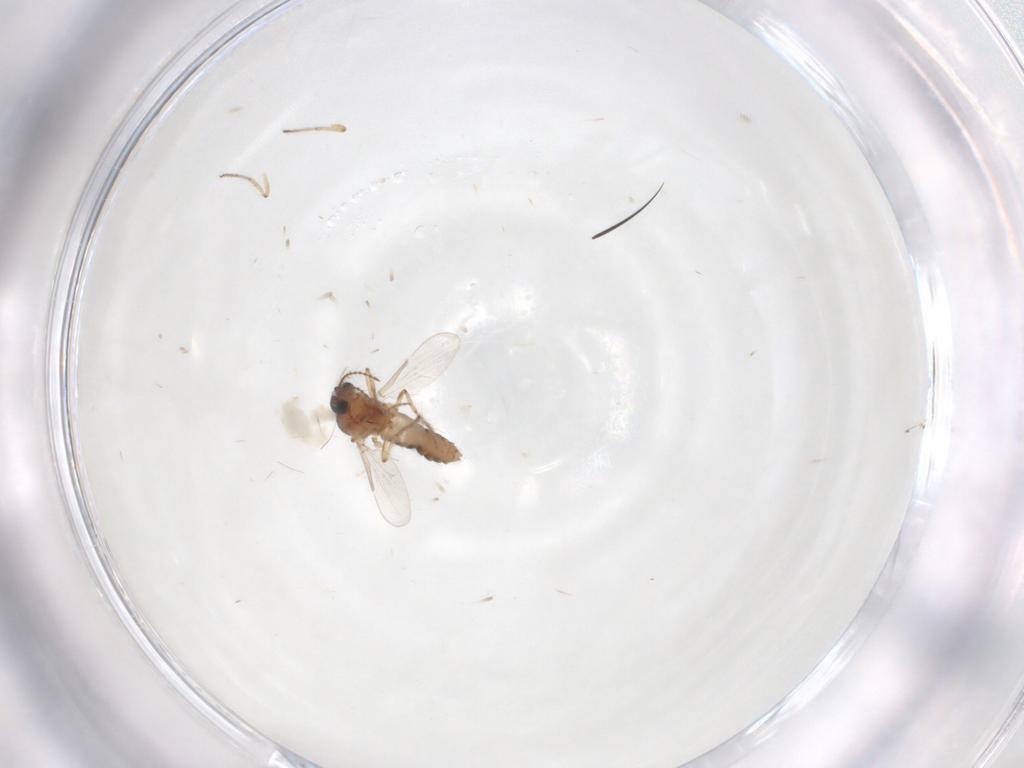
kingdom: Animalia
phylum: Arthropoda
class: Insecta
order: Diptera
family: Ceratopogonidae
